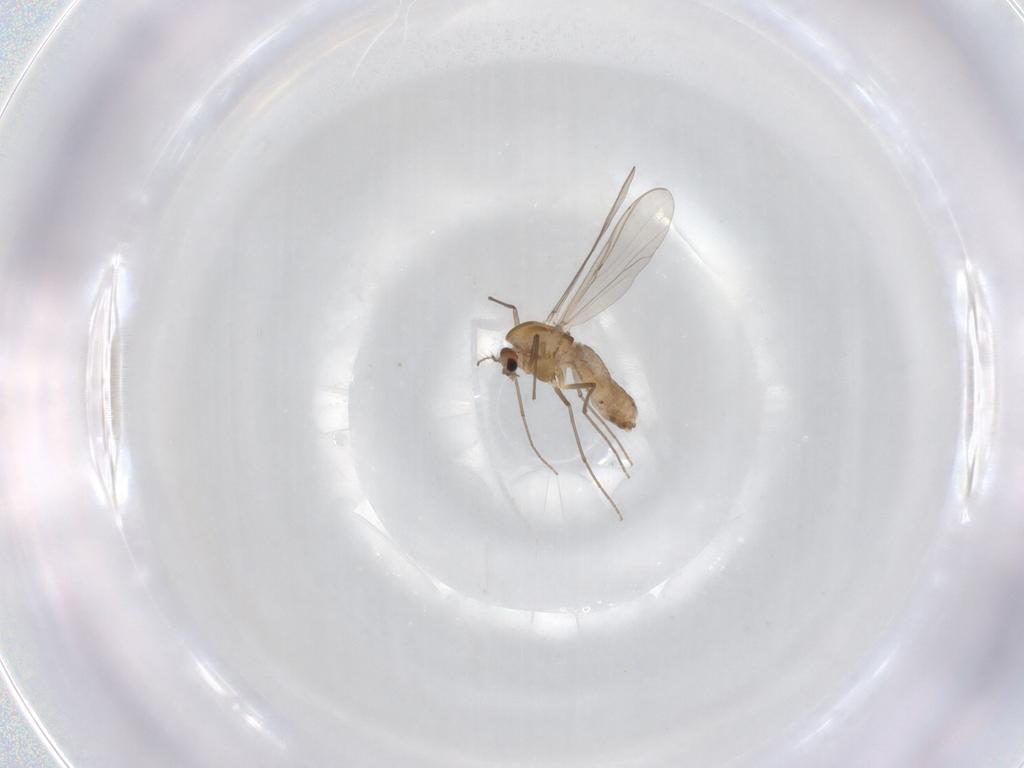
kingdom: Animalia
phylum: Arthropoda
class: Insecta
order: Diptera
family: Chironomidae
